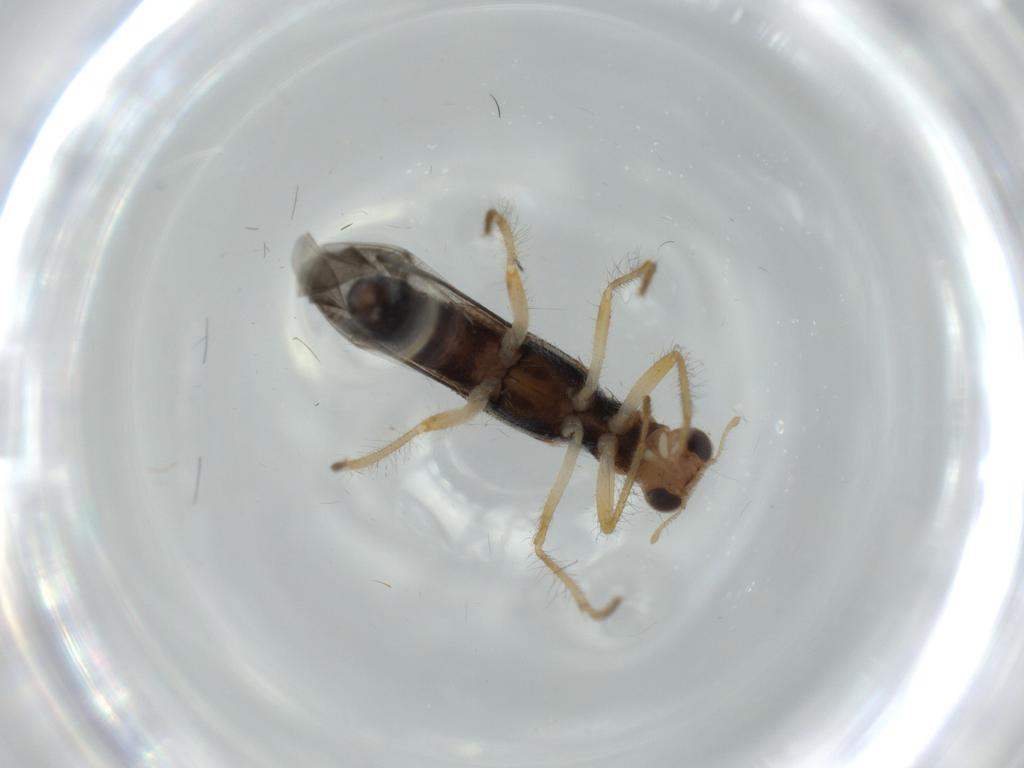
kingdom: Animalia
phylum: Arthropoda
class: Insecta
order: Coleoptera
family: Cleridae
